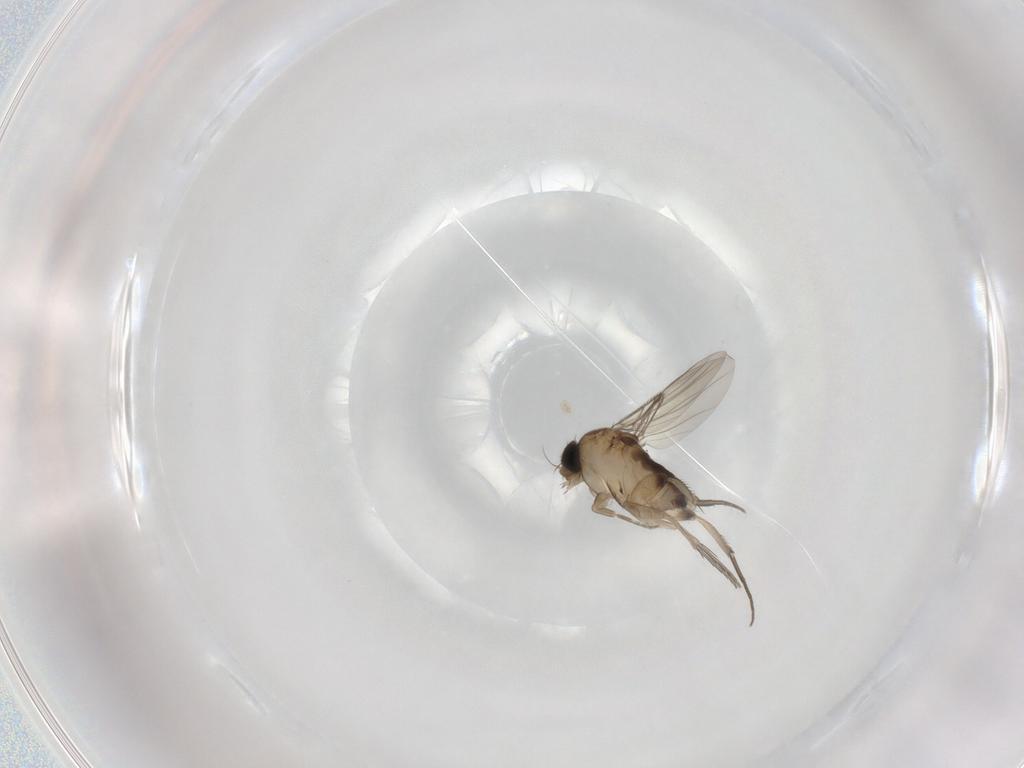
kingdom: Animalia
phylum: Arthropoda
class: Insecta
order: Diptera
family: Phoridae
